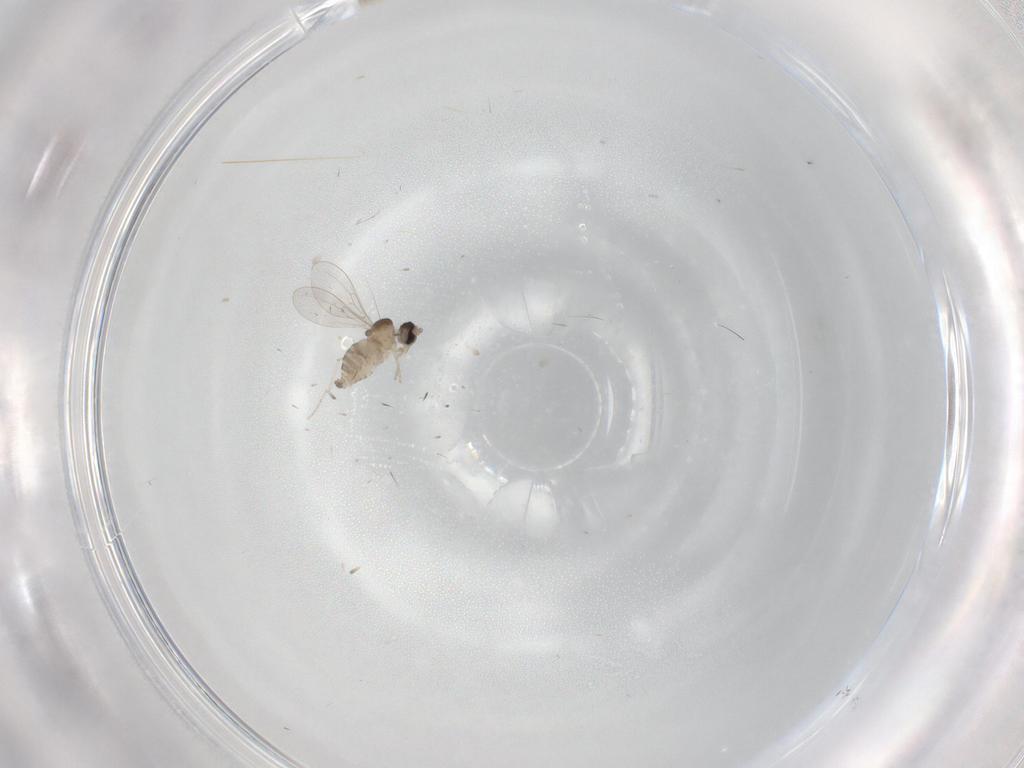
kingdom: Animalia
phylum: Arthropoda
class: Insecta
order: Diptera
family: Cecidomyiidae
